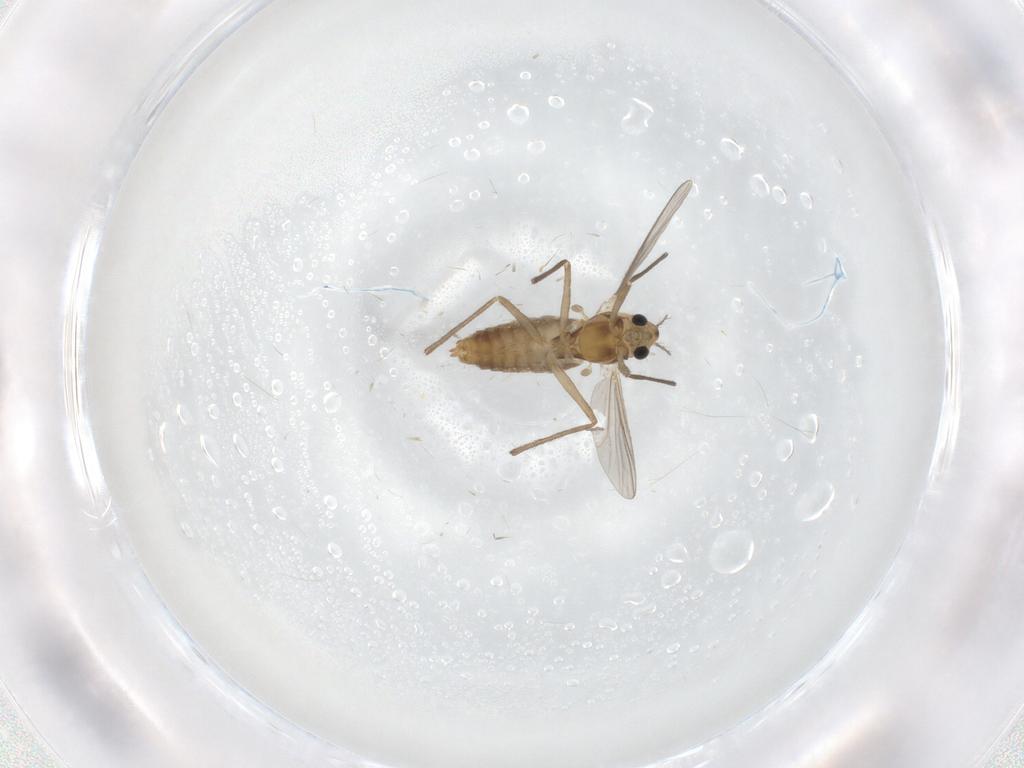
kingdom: Animalia
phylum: Arthropoda
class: Insecta
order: Diptera
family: Chironomidae
